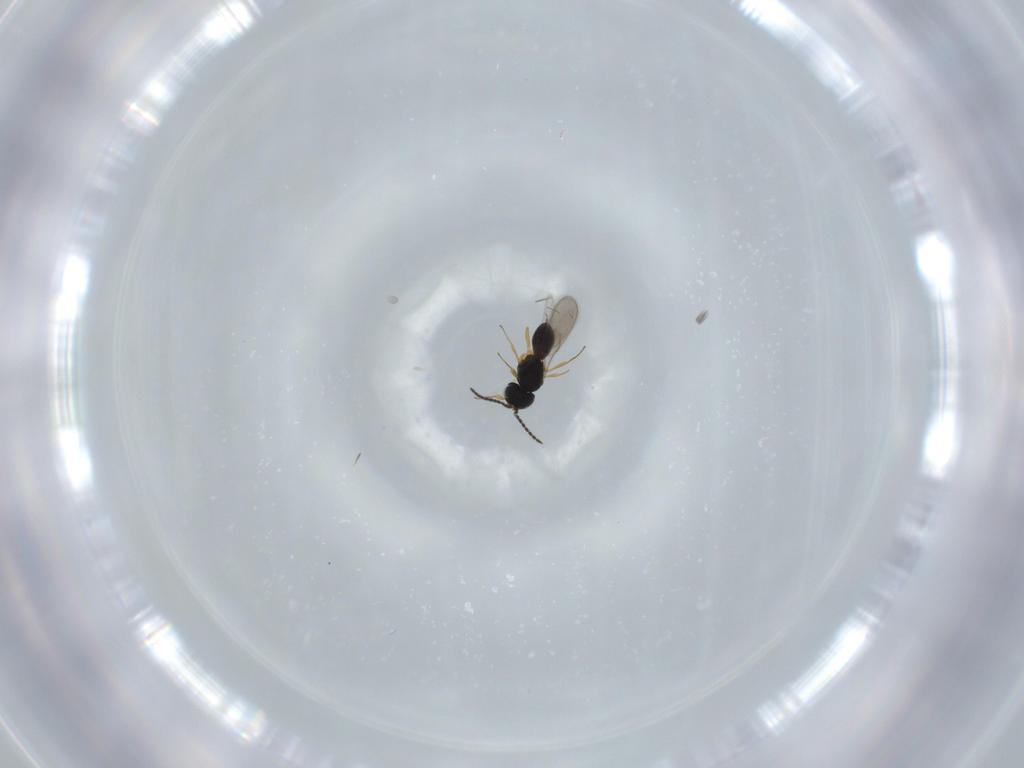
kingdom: Animalia
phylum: Arthropoda
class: Insecta
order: Hymenoptera
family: Scelionidae
